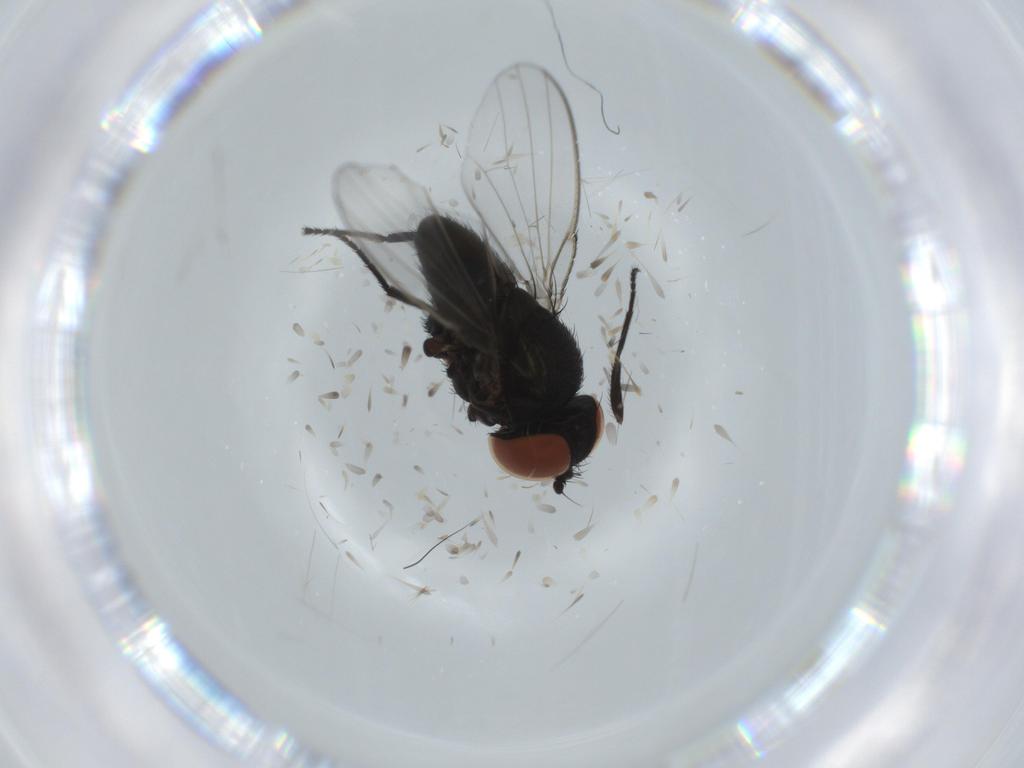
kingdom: Animalia
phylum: Arthropoda
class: Insecta
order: Diptera
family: Milichiidae
